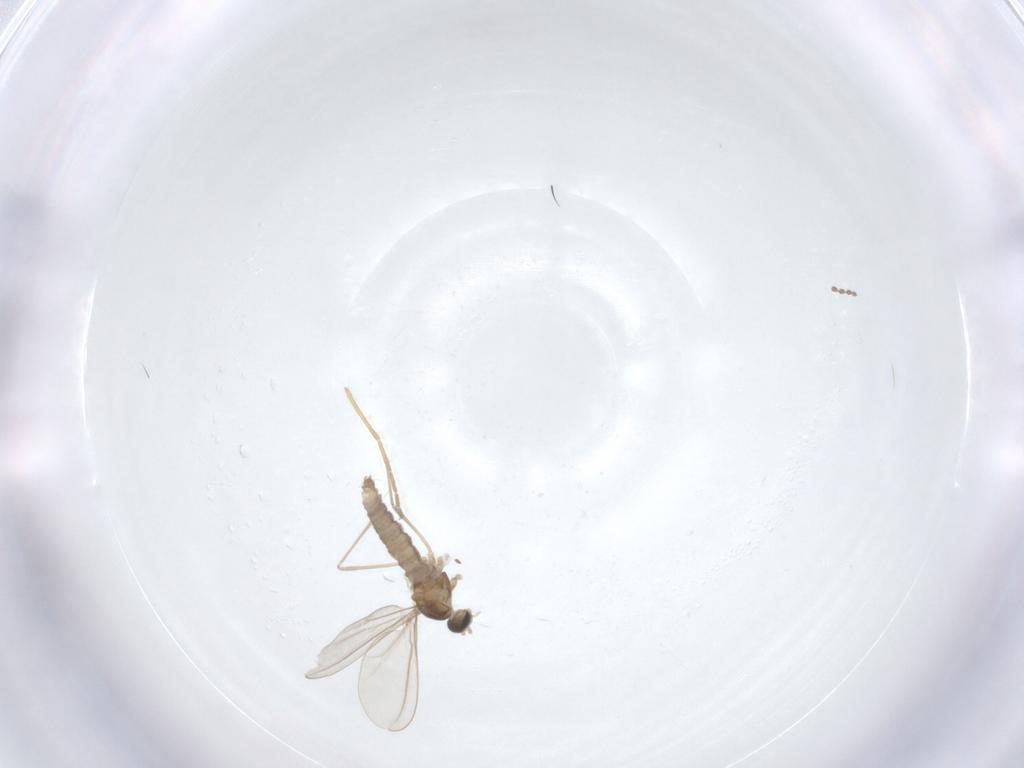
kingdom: Animalia
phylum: Arthropoda
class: Insecta
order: Diptera
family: Chironomidae
